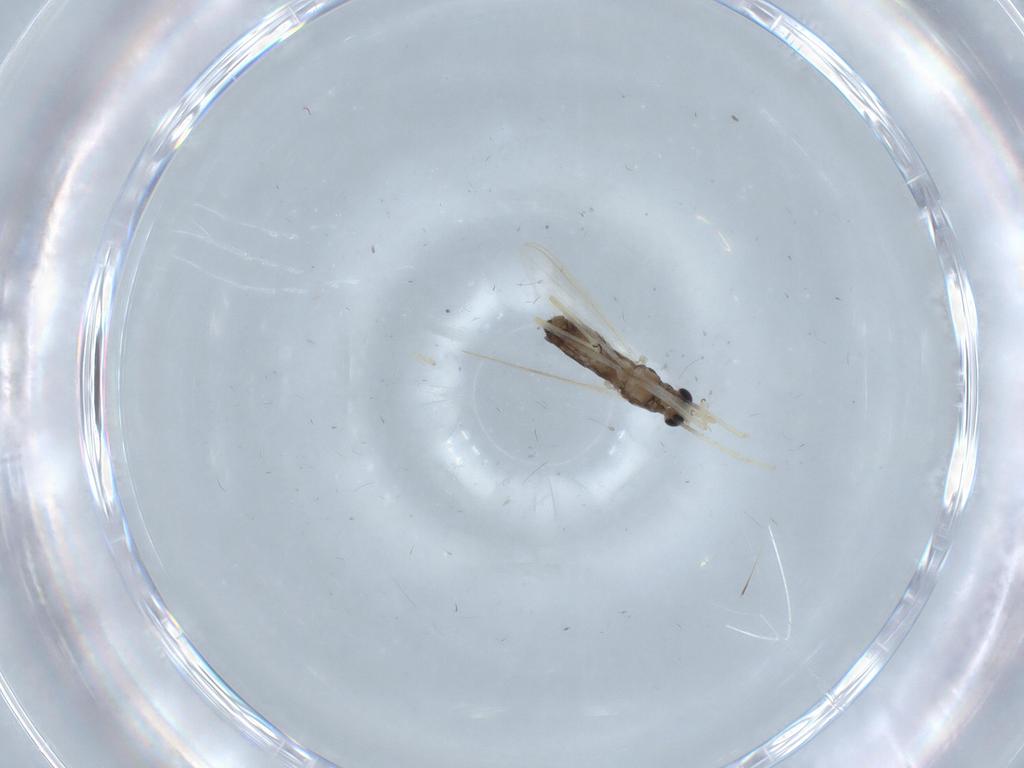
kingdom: Animalia
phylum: Arthropoda
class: Insecta
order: Diptera
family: Chironomidae
